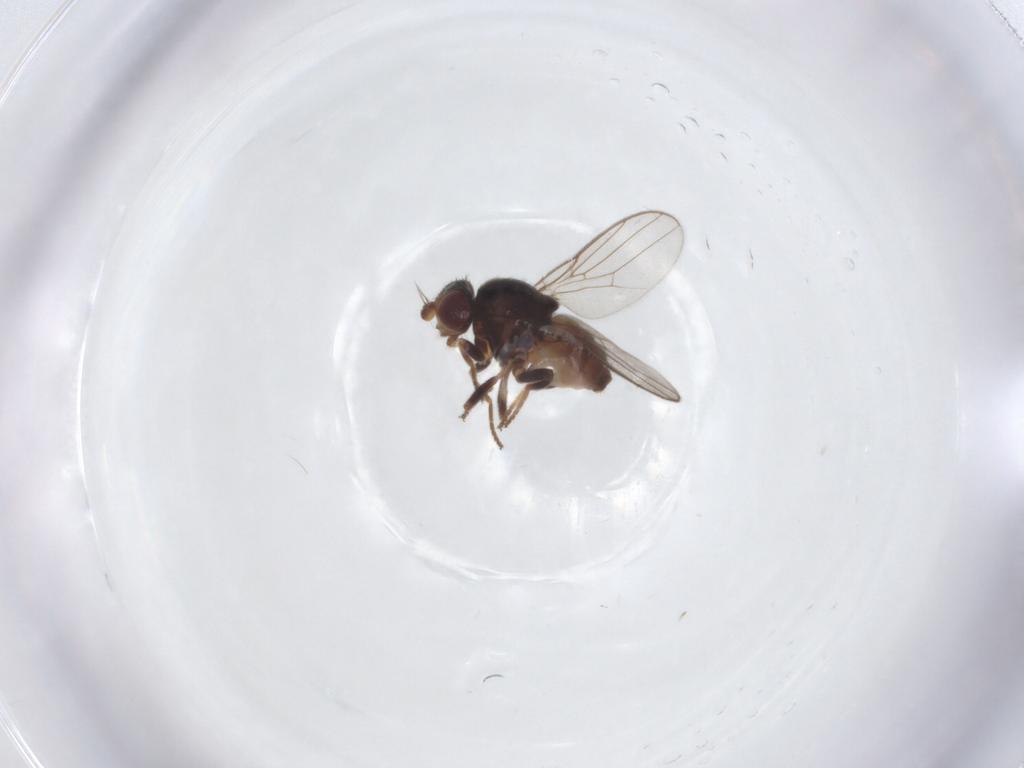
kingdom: Animalia
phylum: Arthropoda
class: Insecta
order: Diptera
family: Chloropidae
